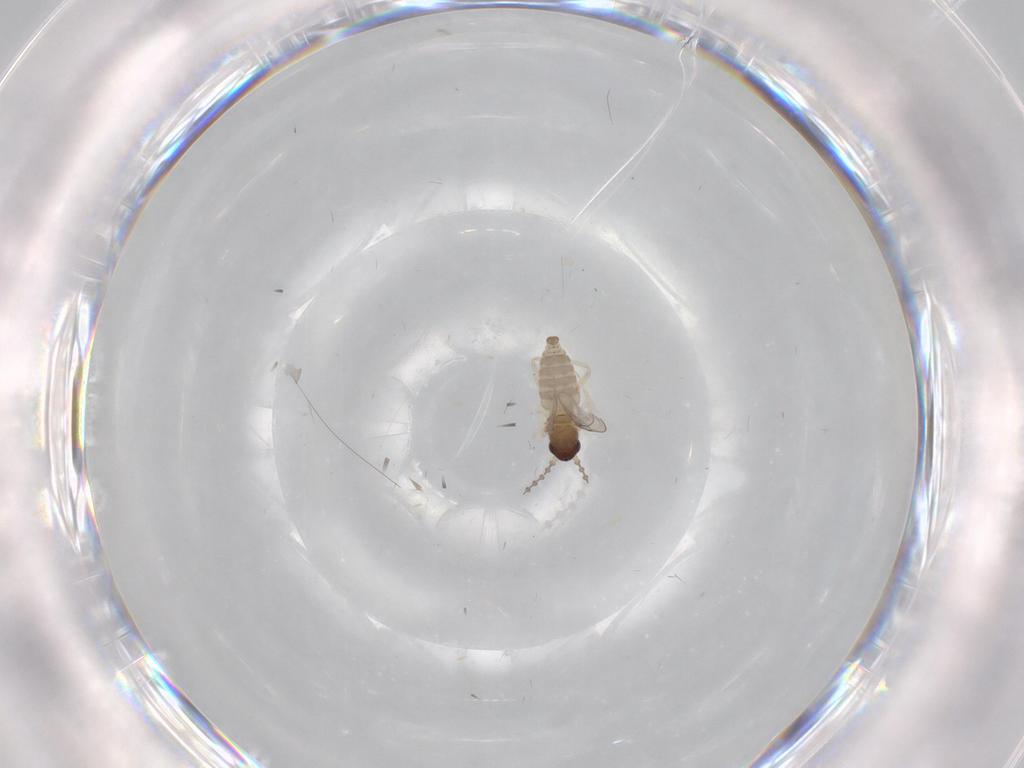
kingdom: Animalia
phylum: Arthropoda
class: Insecta
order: Diptera
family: Cecidomyiidae
